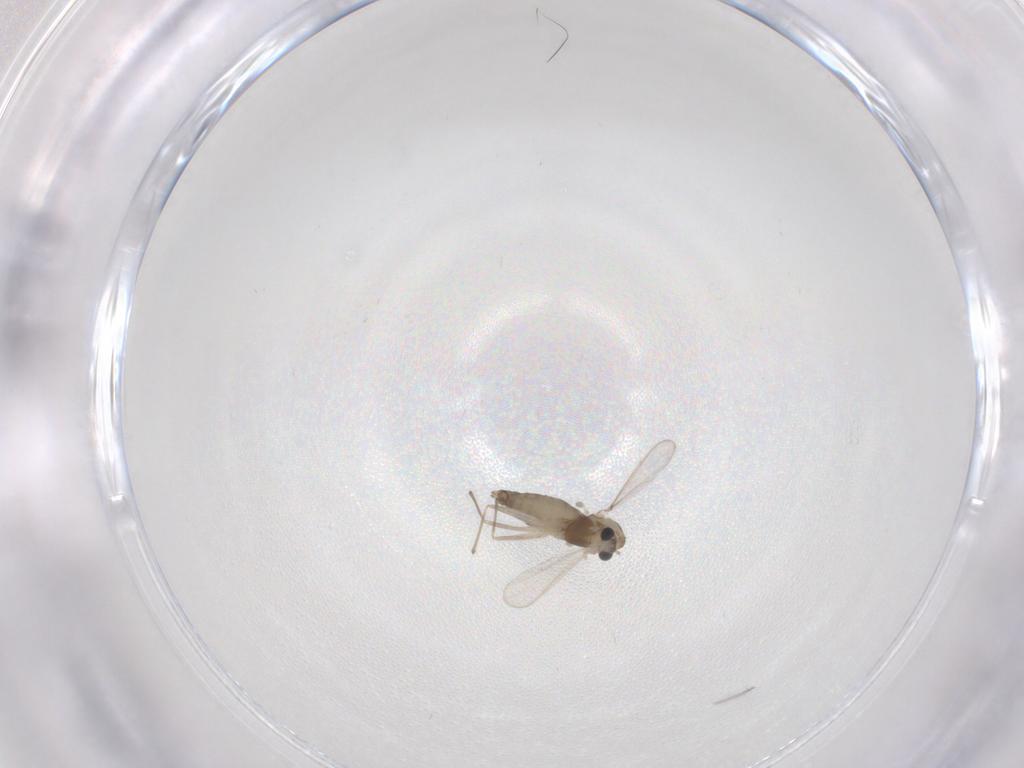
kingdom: Animalia
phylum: Arthropoda
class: Insecta
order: Diptera
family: Chironomidae
